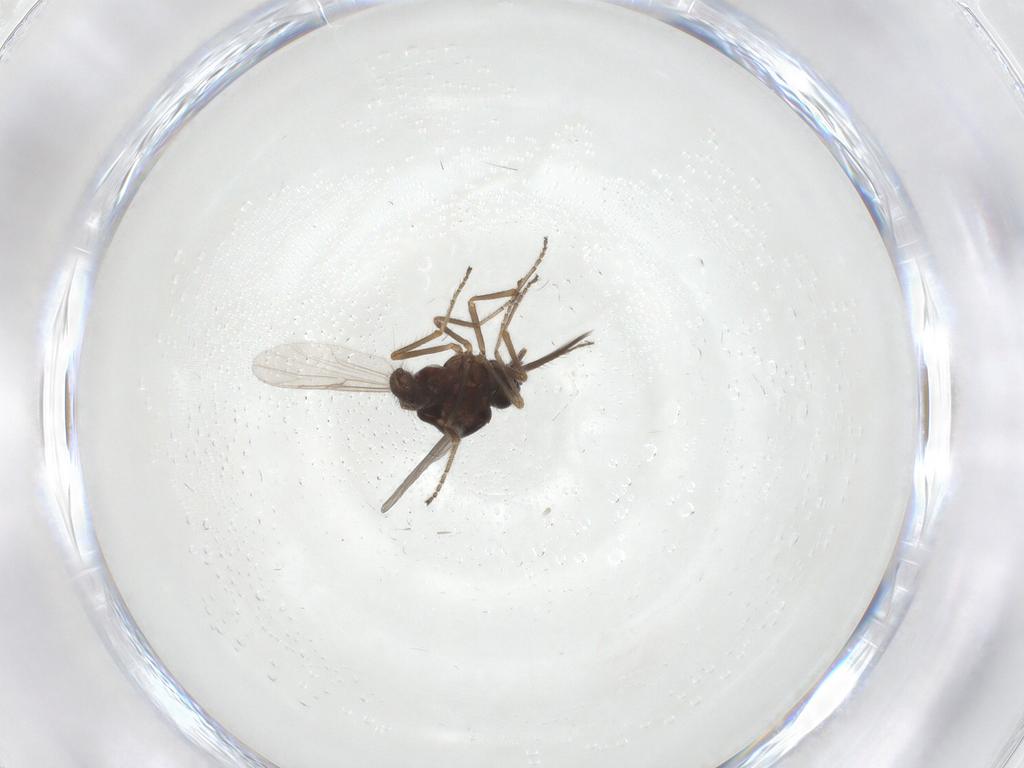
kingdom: Animalia
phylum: Arthropoda
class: Insecta
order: Diptera
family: Ceratopogonidae
